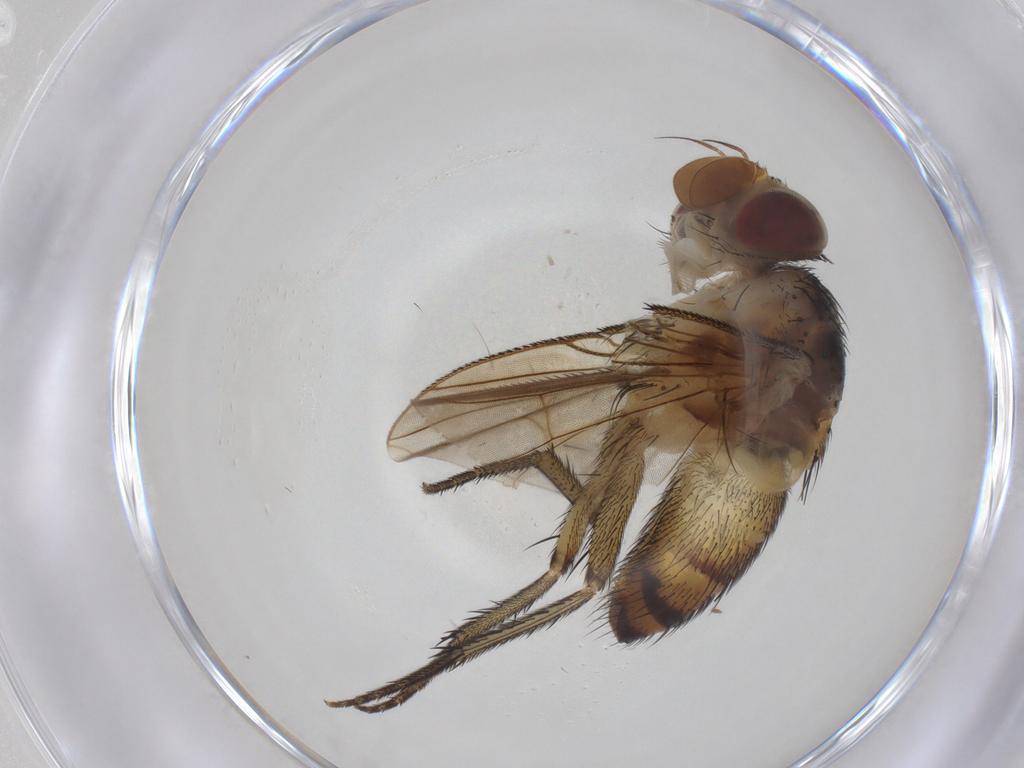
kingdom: Animalia
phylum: Arthropoda
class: Insecta
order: Diptera
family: Tachinidae
